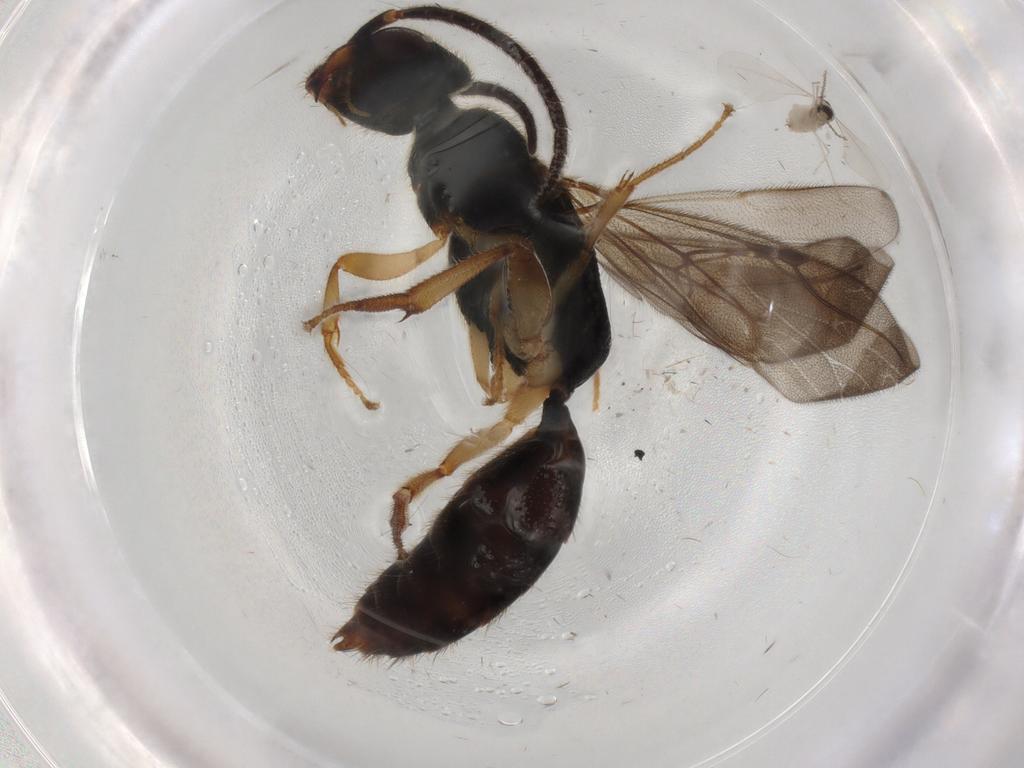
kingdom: Animalia
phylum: Arthropoda
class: Insecta
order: Diptera
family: Cecidomyiidae
